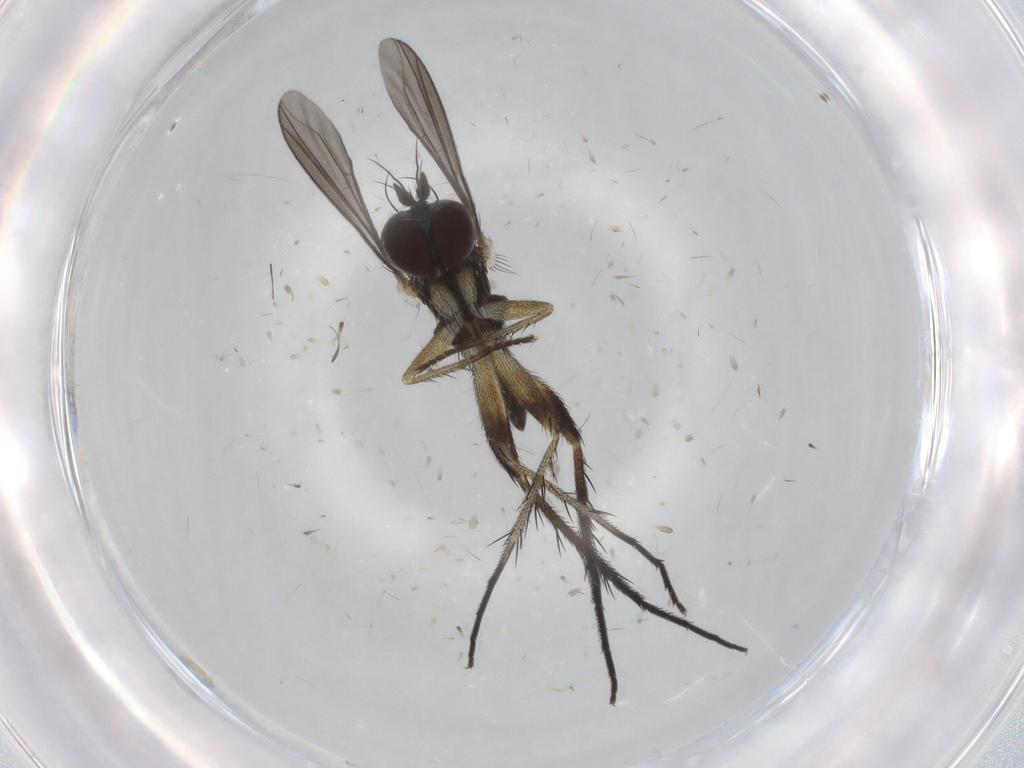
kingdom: Animalia
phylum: Arthropoda
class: Insecta
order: Diptera
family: Dolichopodidae
